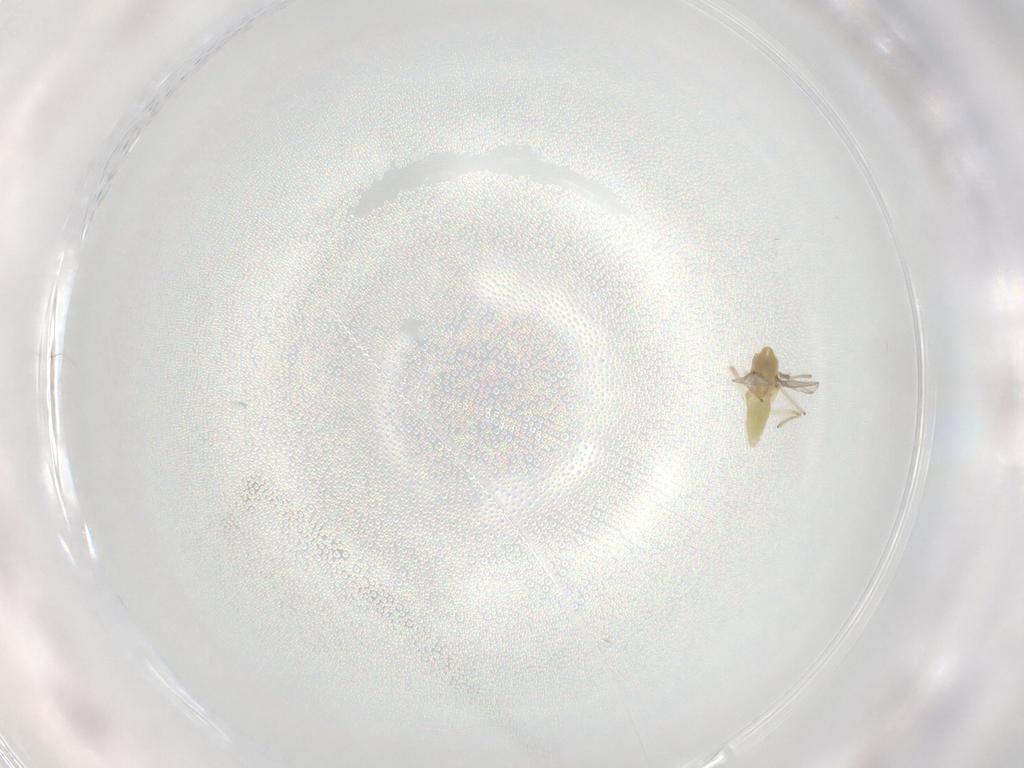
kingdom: Animalia
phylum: Arthropoda
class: Insecta
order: Diptera
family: Chironomidae
